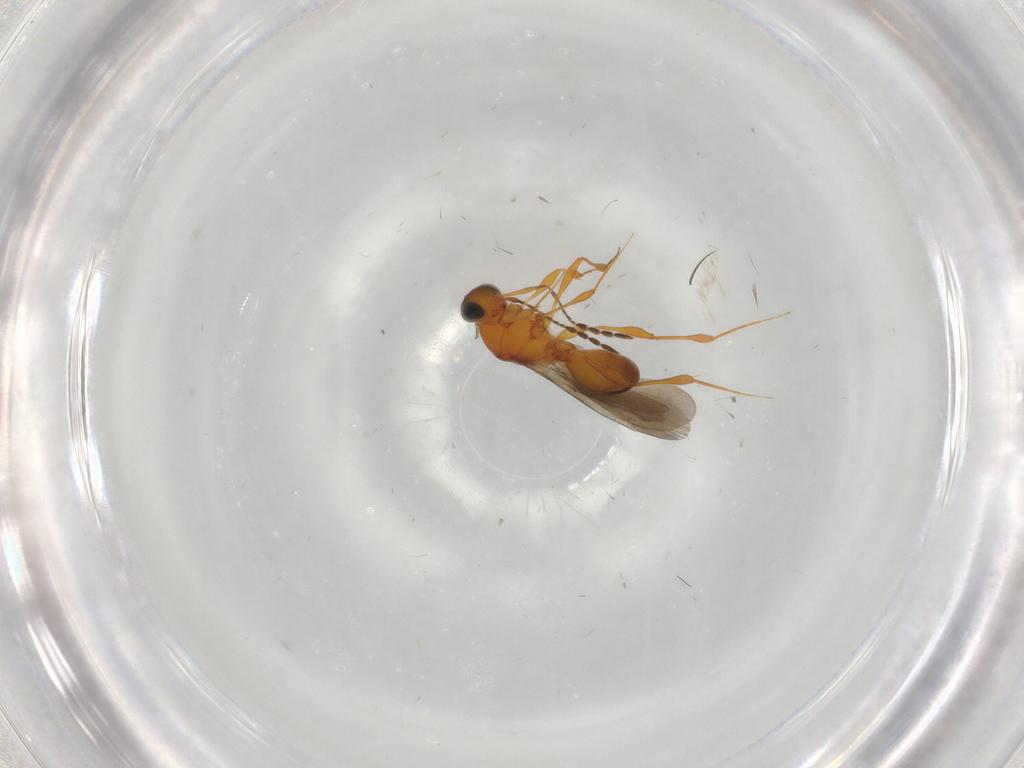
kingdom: Animalia
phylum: Arthropoda
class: Insecta
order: Hymenoptera
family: Platygastridae
